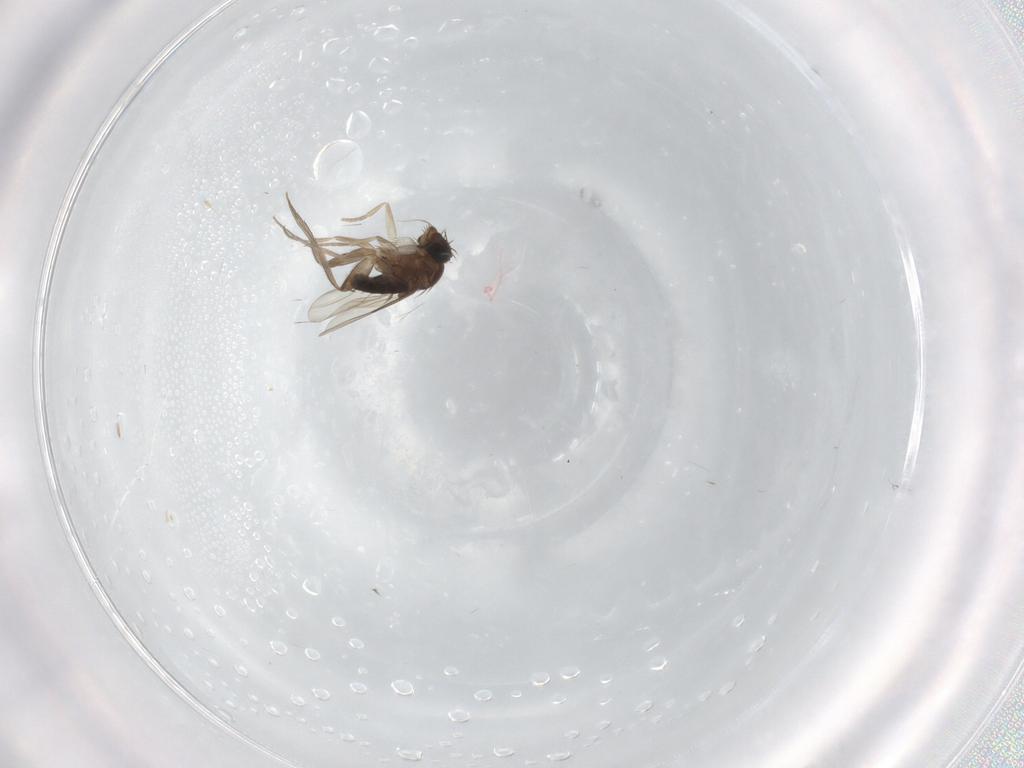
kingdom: Animalia
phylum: Arthropoda
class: Insecta
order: Diptera
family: Phoridae
